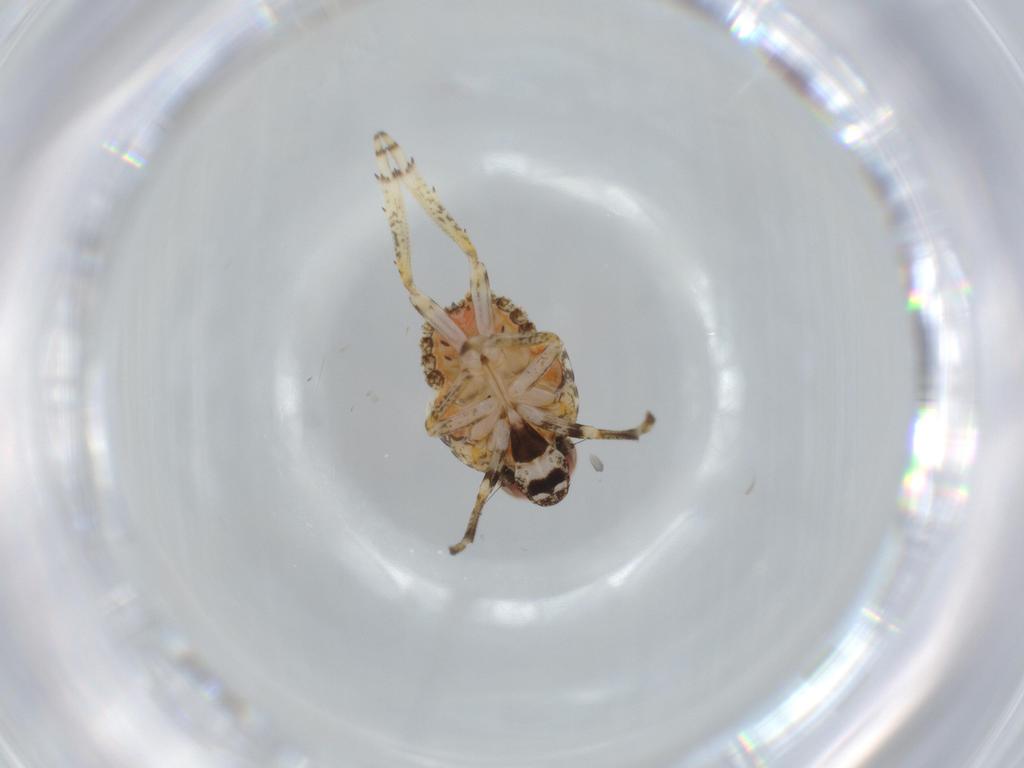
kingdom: Animalia
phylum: Arthropoda
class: Insecta
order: Hemiptera
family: Issidae
